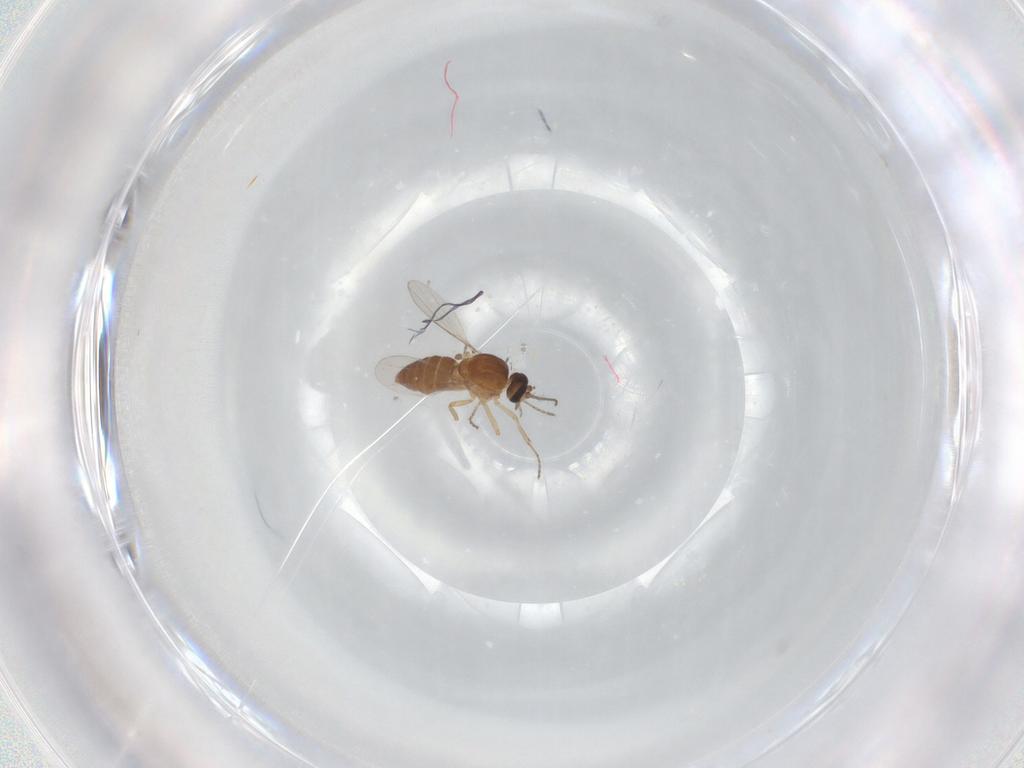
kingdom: Animalia
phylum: Arthropoda
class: Insecta
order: Diptera
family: Ceratopogonidae
